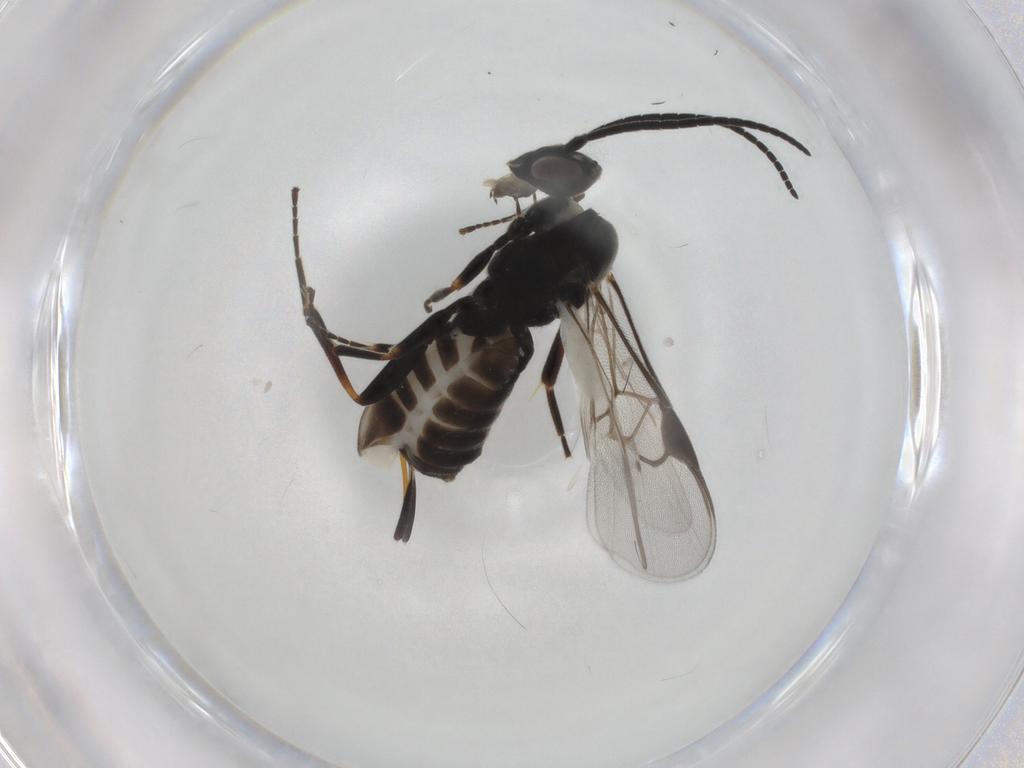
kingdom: Animalia
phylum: Arthropoda
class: Insecta
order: Hymenoptera
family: Braconidae
